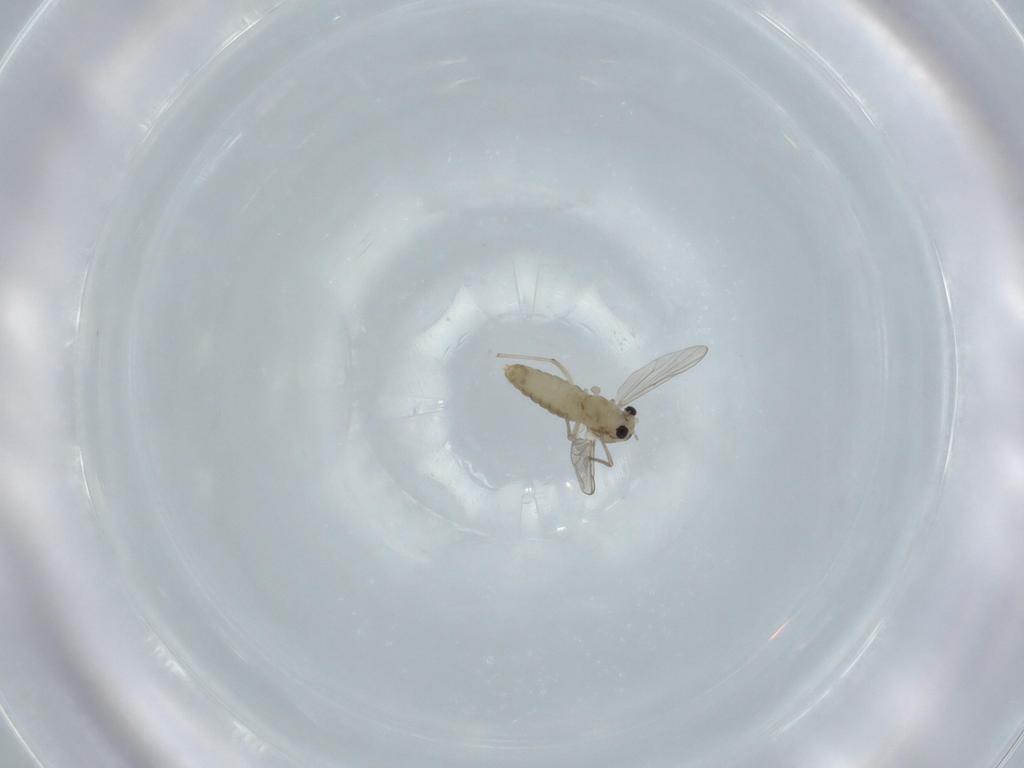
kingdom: Animalia
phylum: Arthropoda
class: Insecta
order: Diptera
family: Chironomidae
